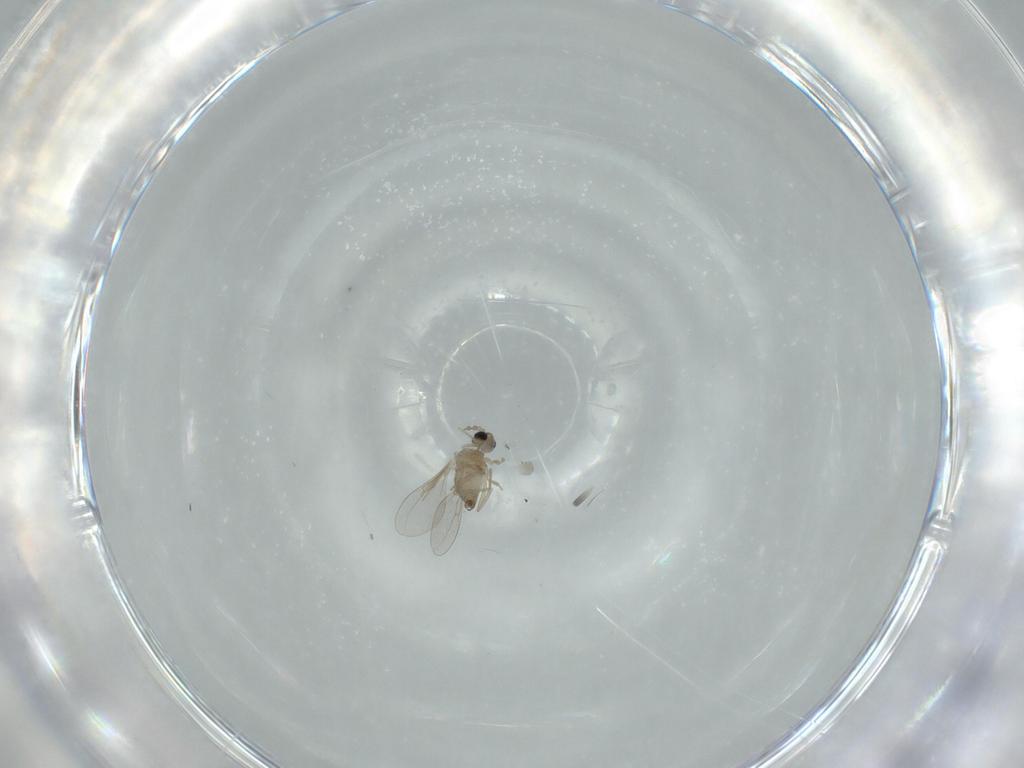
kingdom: Animalia
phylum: Arthropoda
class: Insecta
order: Diptera
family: Cecidomyiidae
